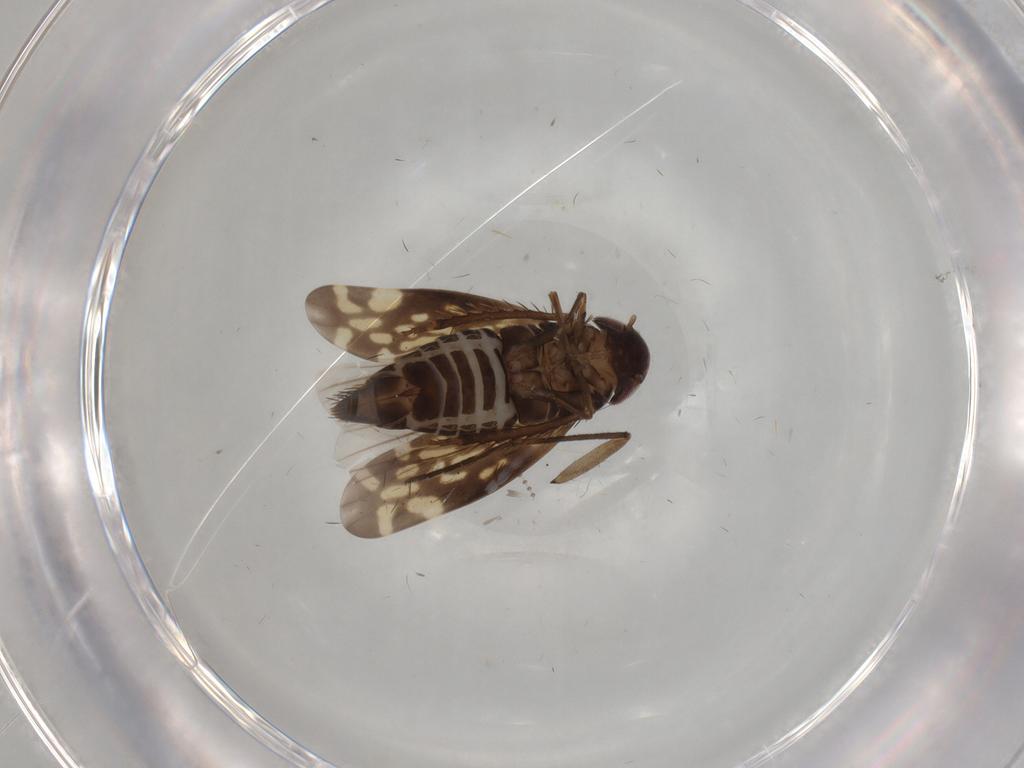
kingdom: Animalia
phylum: Arthropoda
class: Insecta
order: Hemiptera
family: Cicadellidae
